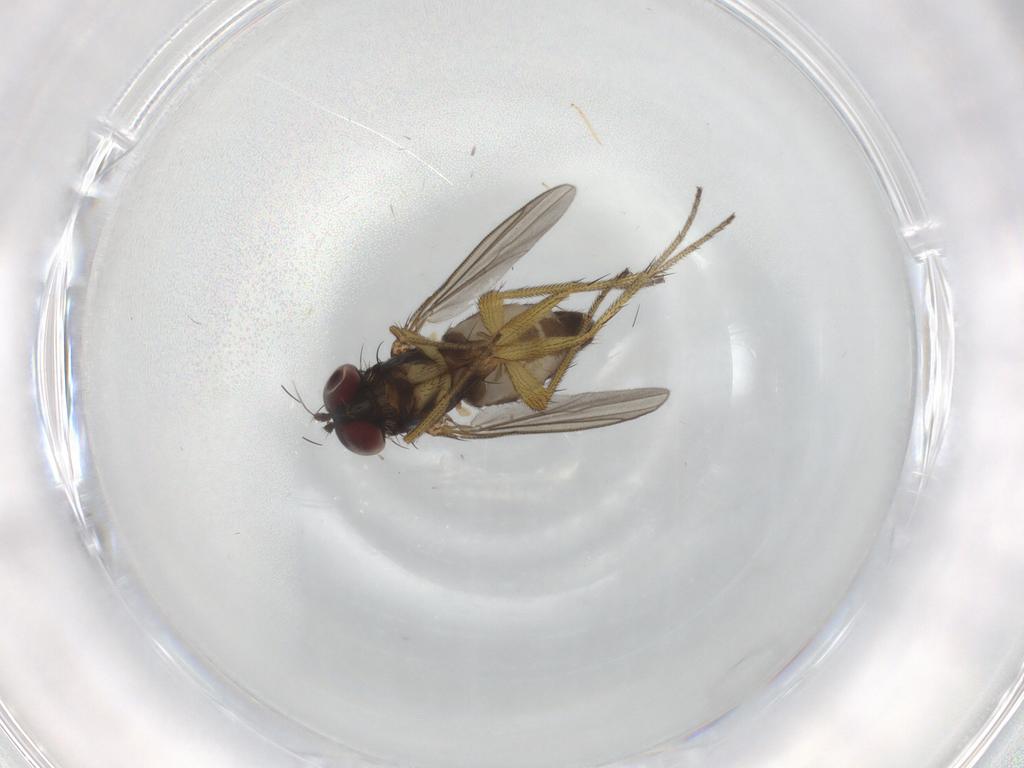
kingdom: Animalia
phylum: Arthropoda
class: Insecta
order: Diptera
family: Dolichopodidae
